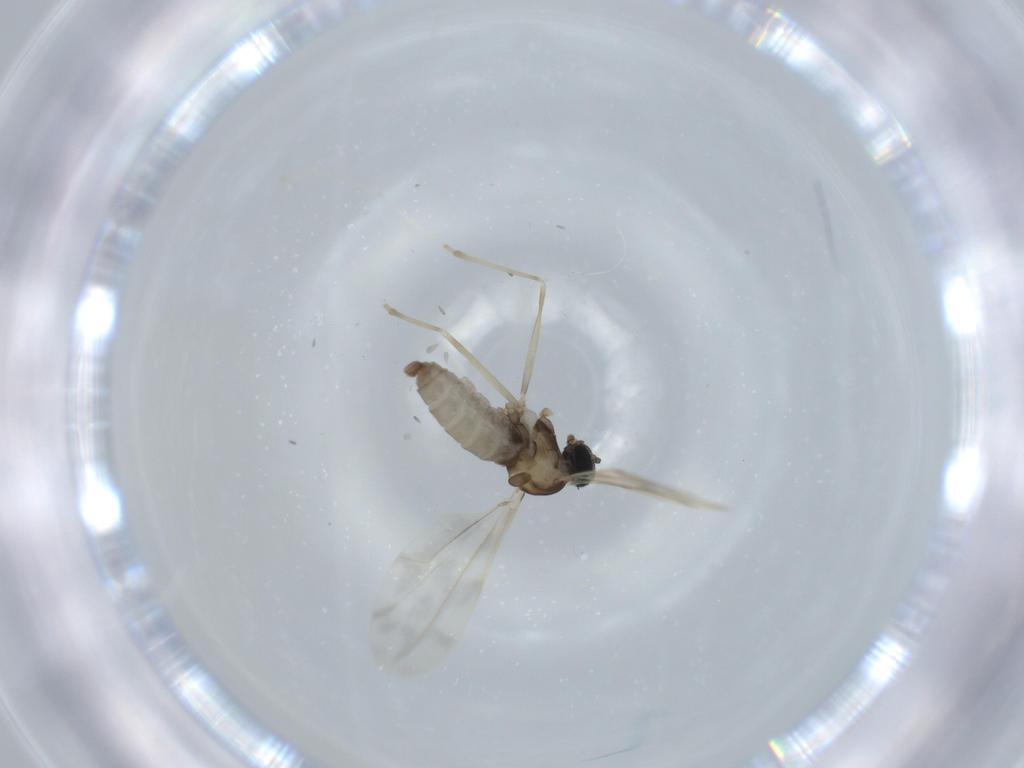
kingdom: Animalia
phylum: Arthropoda
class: Insecta
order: Diptera
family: Cecidomyiidae
